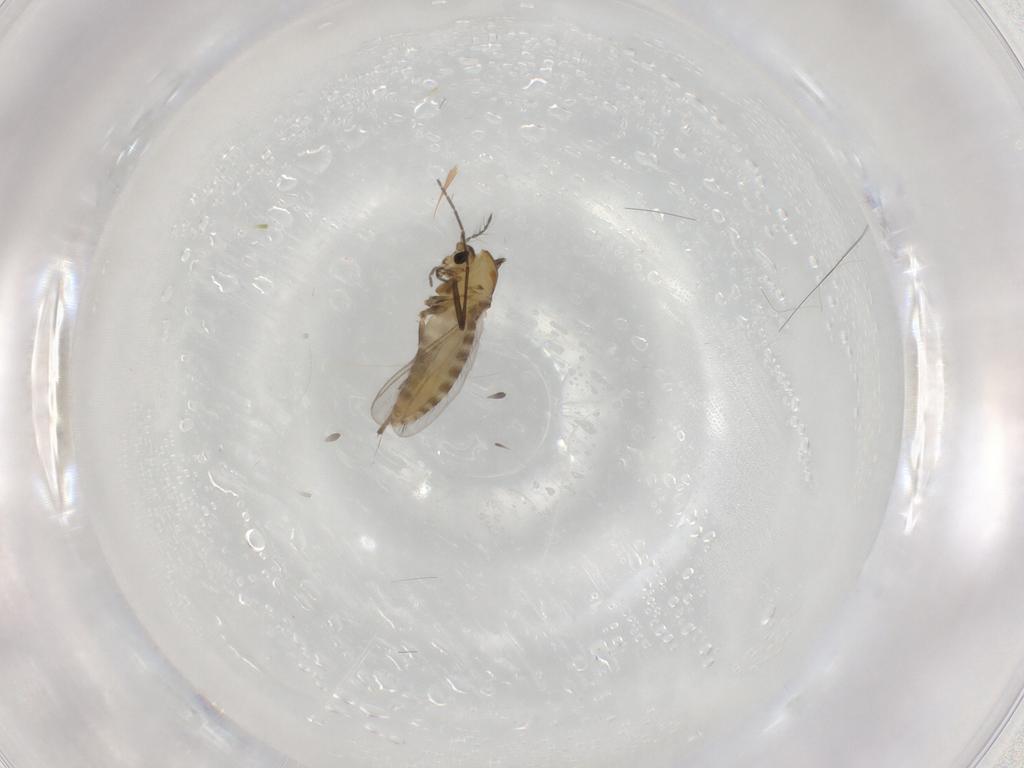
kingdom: Animalia
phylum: Arthropoda
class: Insecta
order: Diptera
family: Chironomidae
